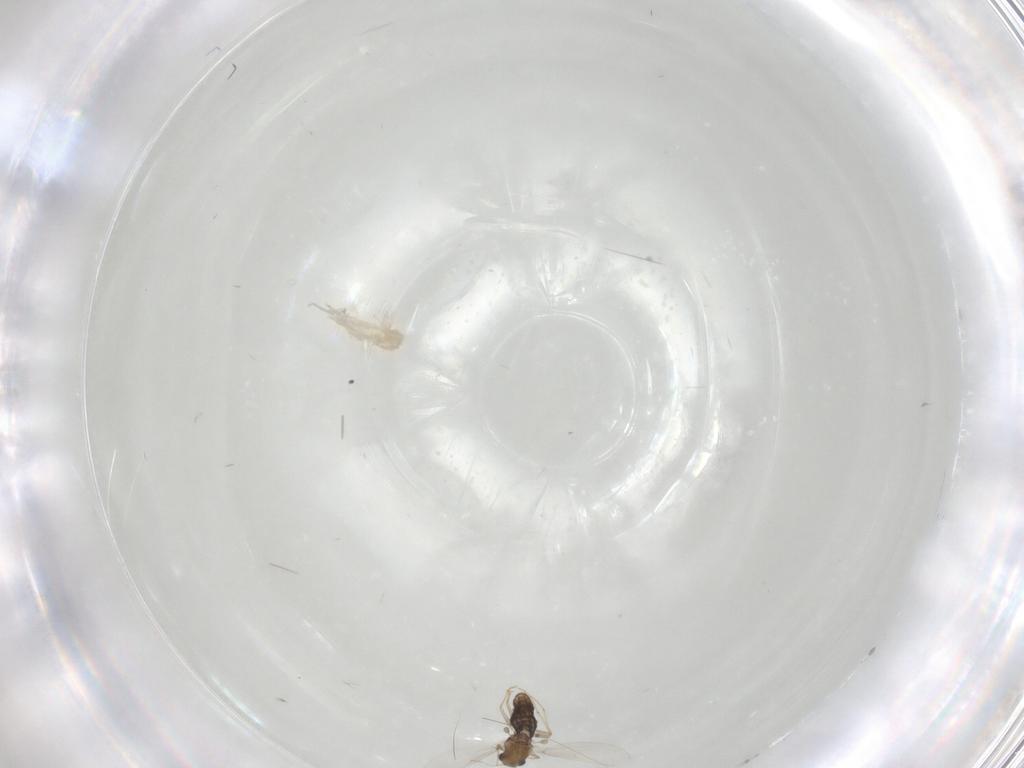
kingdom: Animalia
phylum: Arthropoda
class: Insecta
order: Diptera
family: Chironomidae
